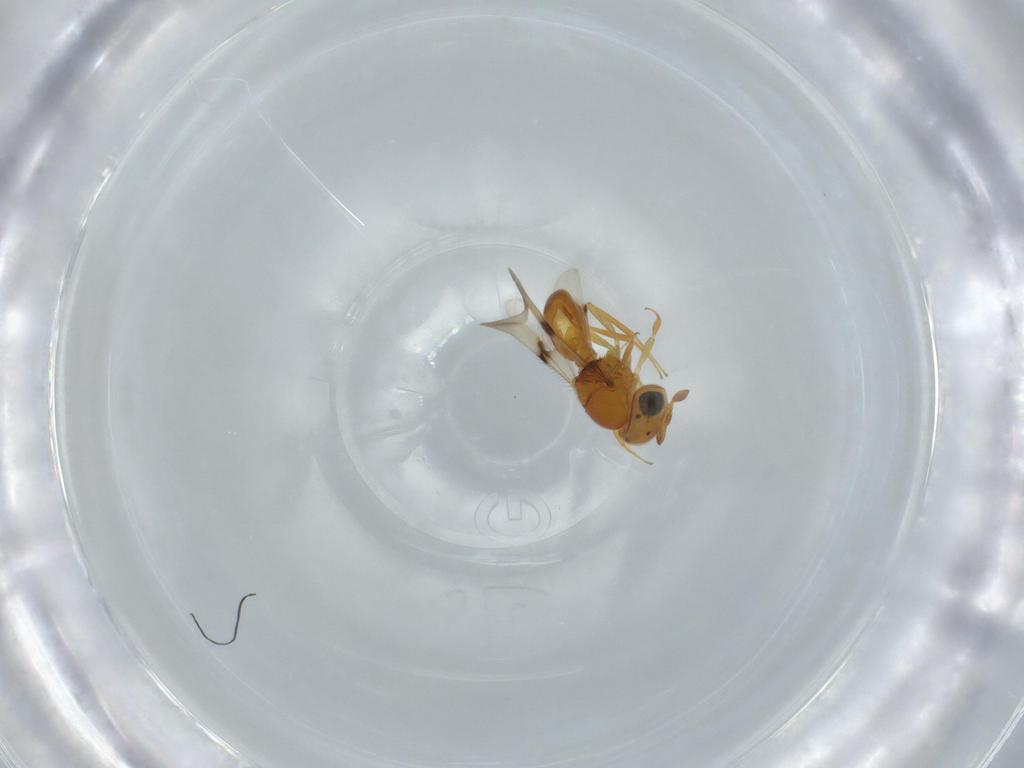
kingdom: Animalia
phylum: Arthropoda
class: Insecta
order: Hymenoptera
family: Scelionidae
